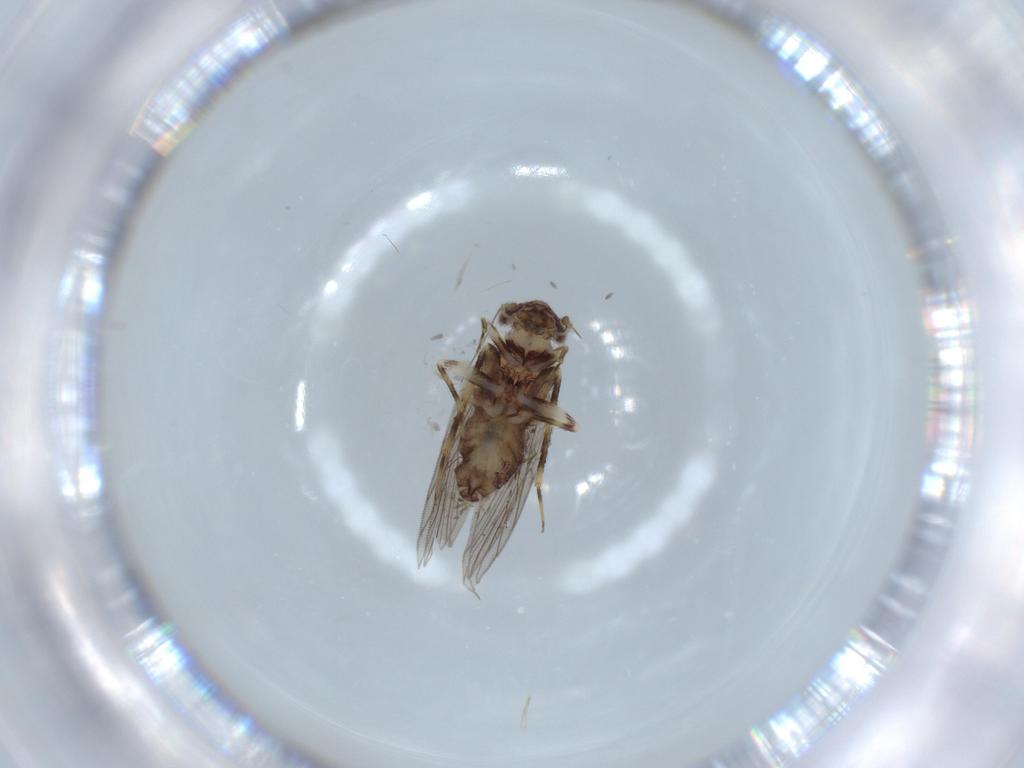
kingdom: Animalia
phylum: Arthropoda
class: Insecta
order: Psocodea
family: Lepidopsocidae
